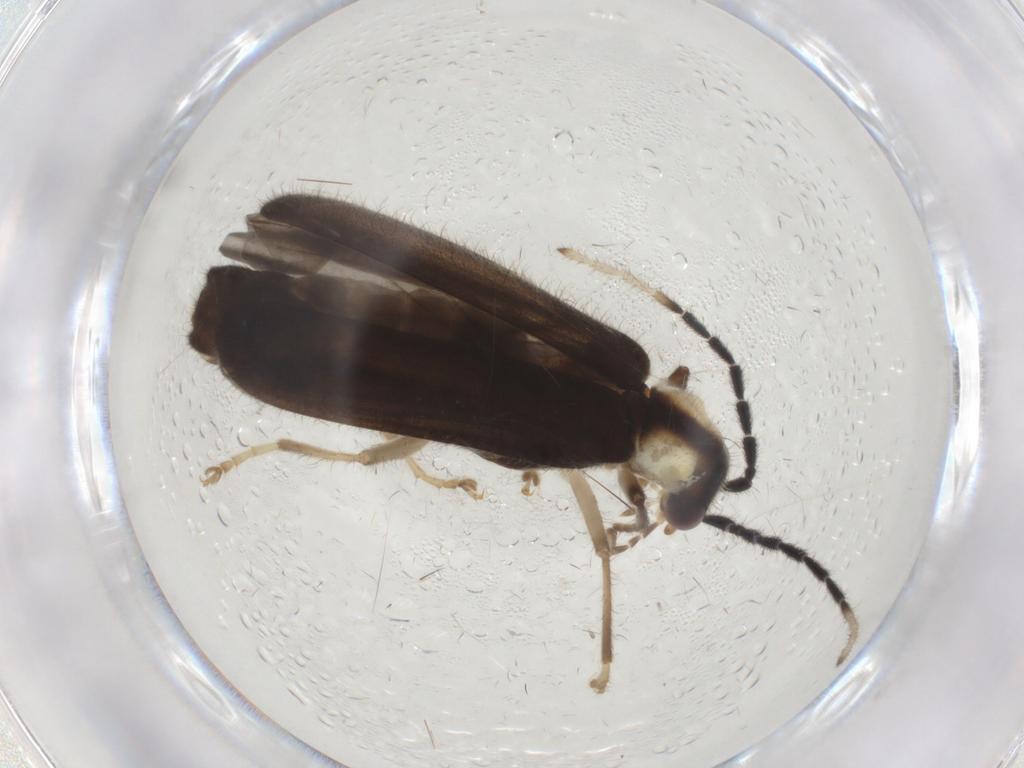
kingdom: Animalia
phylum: Arthropoda
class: Insecta
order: Coleoptera
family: Cantharidae
